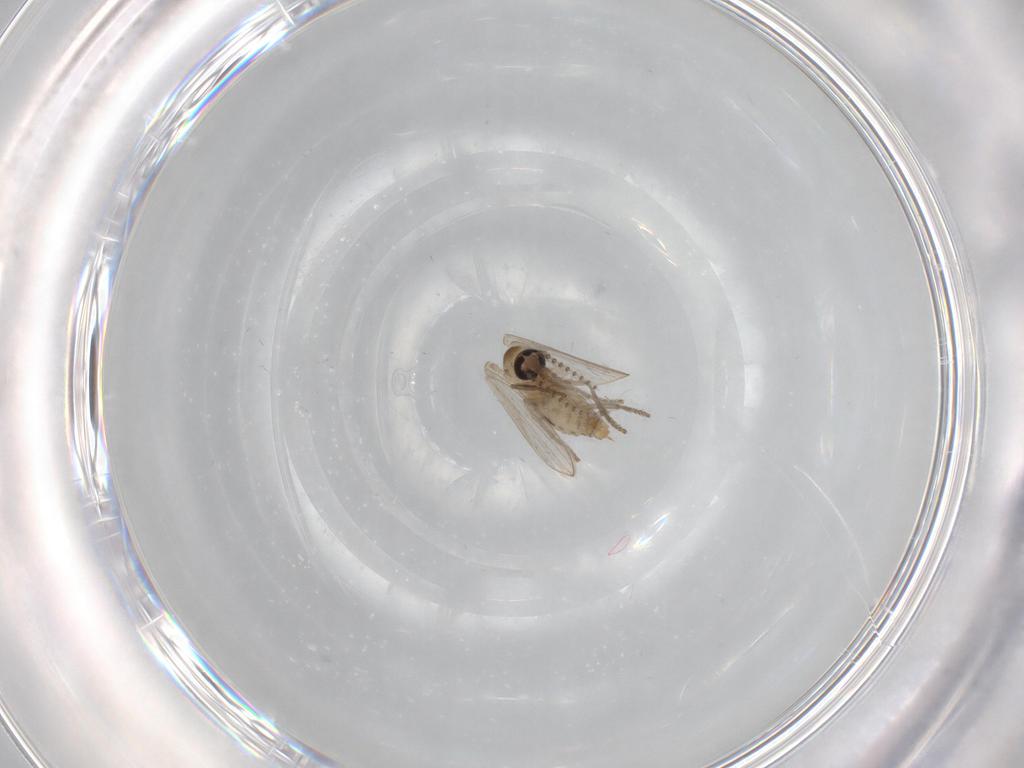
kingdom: Animalia
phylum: Arthropoda
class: Insecta
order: Diptera
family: Psychodidae
